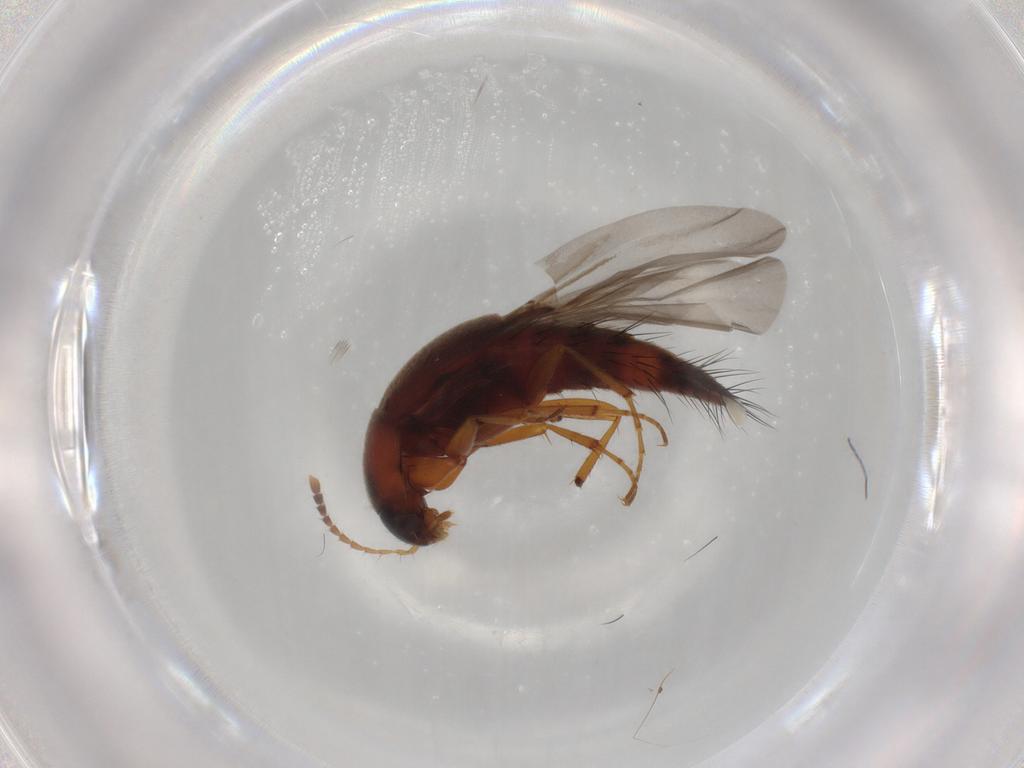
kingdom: Animalia
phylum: Arthropoda
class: Insecta
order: Coleoptera
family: Staphylinidae
